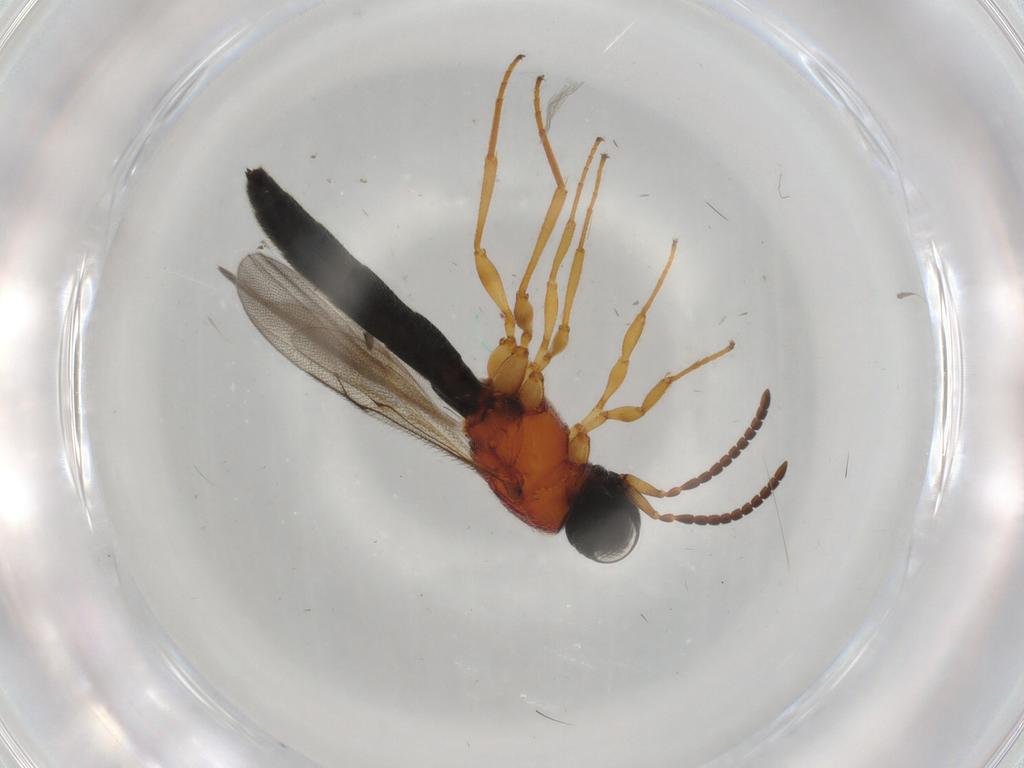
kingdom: Animalia
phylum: Arthropoda
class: Insecta
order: Hymenoptera
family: Scelionidae
